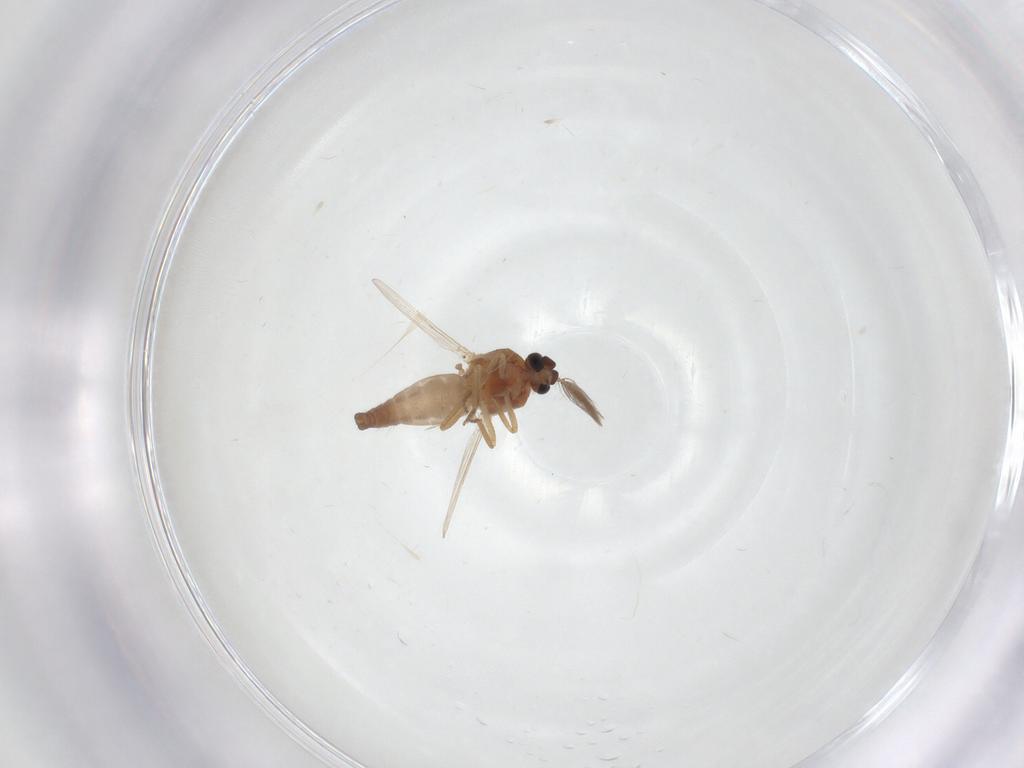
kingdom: Animalia
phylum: Arthropoda
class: Insecta
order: Diptera
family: Ceratopogonidae
